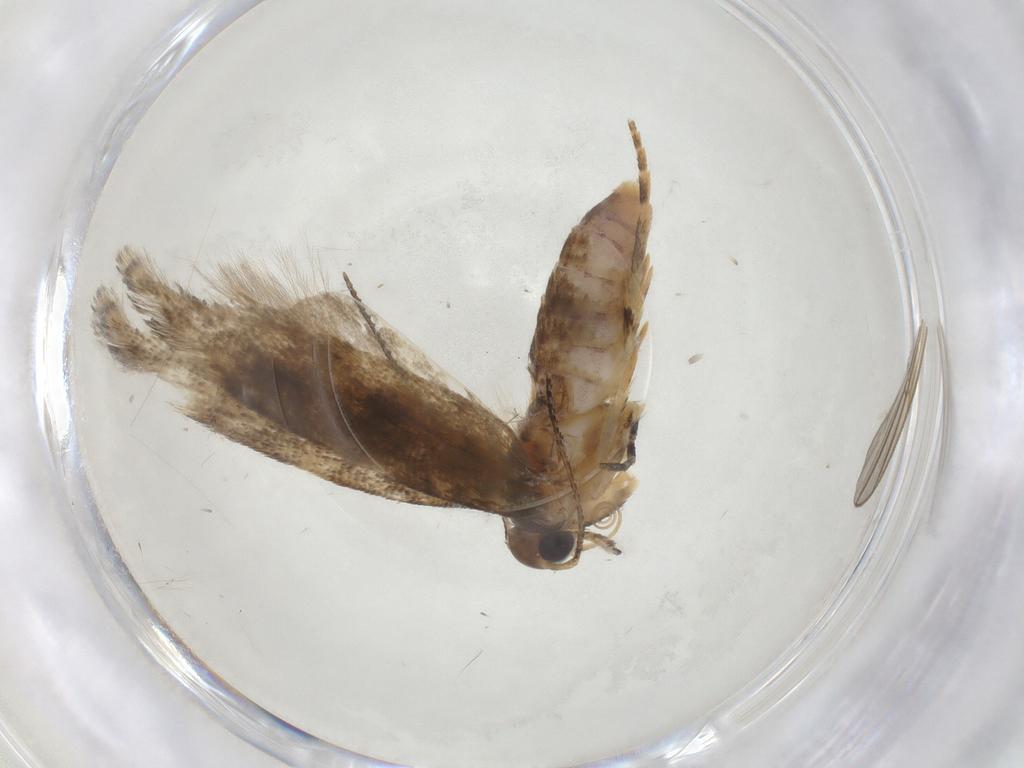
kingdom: Animalia
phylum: Arthropoda
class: Insecta
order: Lepidoptera
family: Gelechiidae
